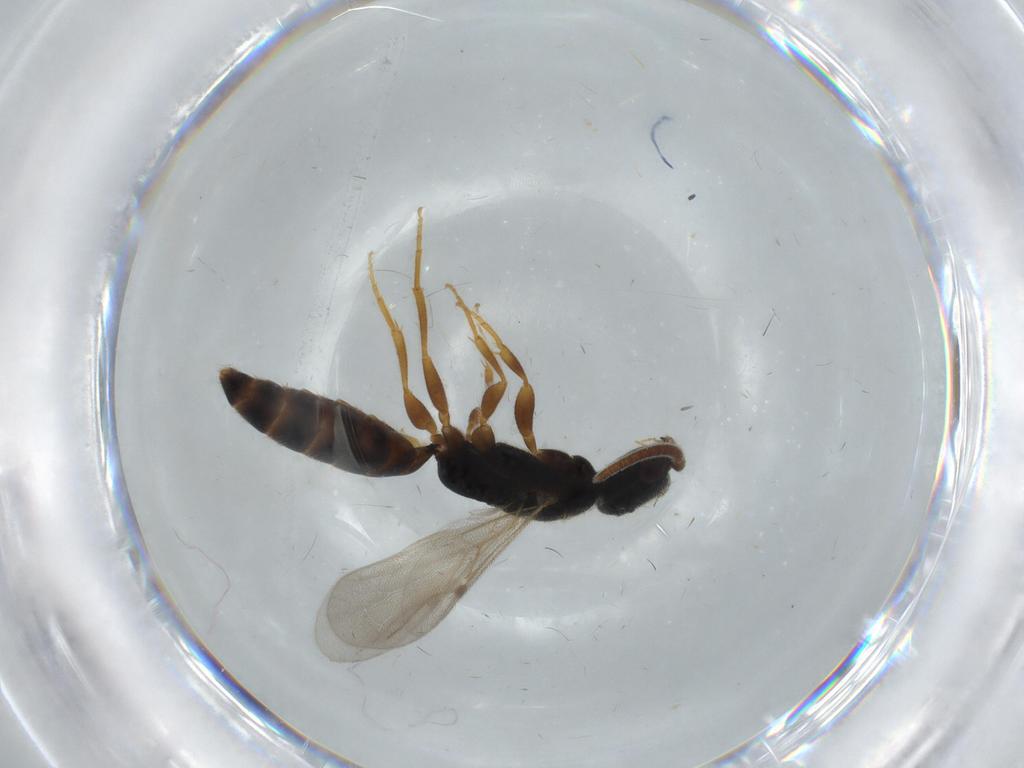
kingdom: Animalia
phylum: Arthropoda
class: Insecta
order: Hymenoptera
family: Bethylidae
